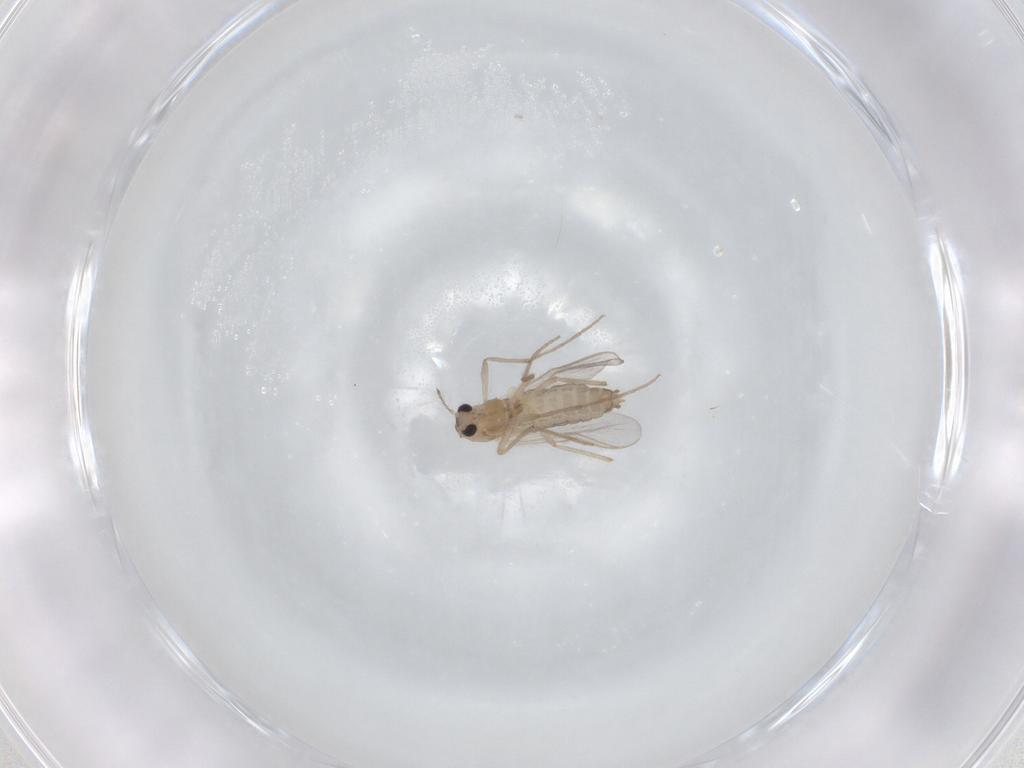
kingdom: Animalia
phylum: Arthropoda
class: Insecta
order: Diptera
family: Chironomidae
